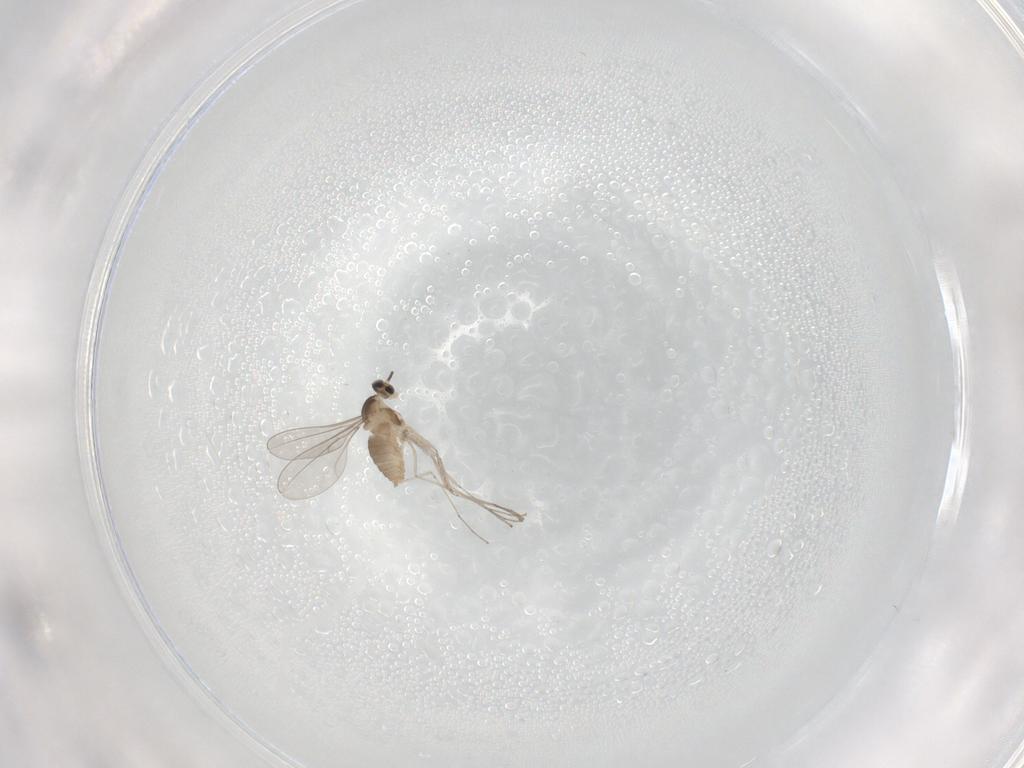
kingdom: Animalia
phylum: Arthropoda
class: Insecta
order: Diptera
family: Cecidomyiidae
